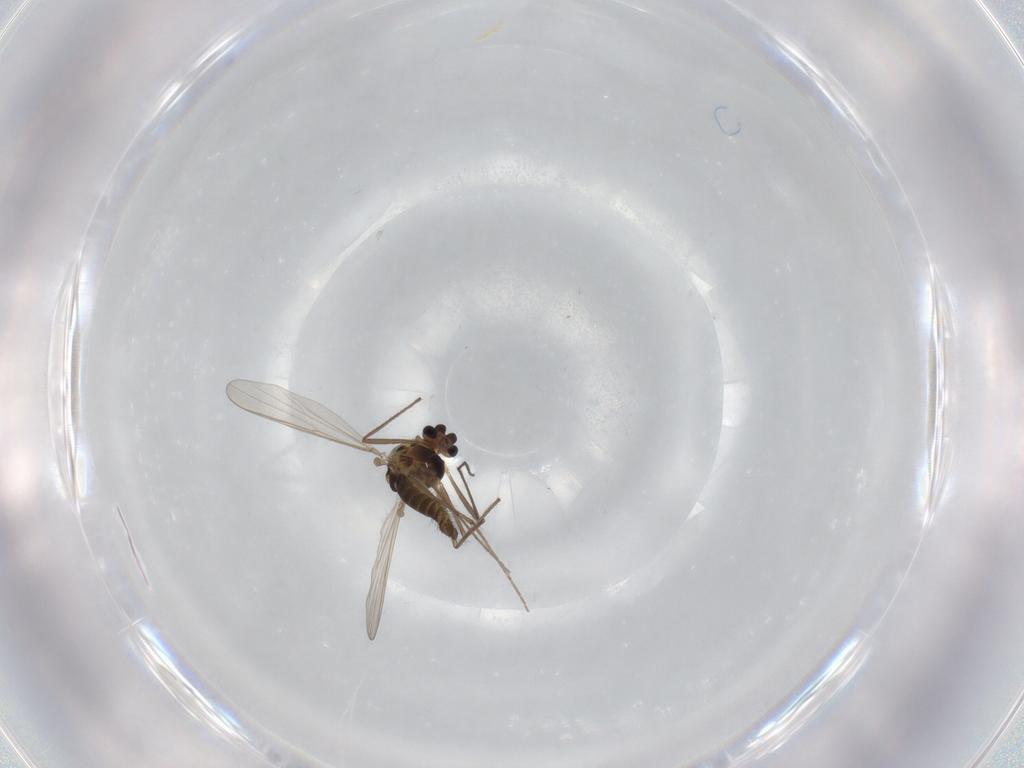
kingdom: Animalia
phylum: Arthropoda
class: Insecta
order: Diptera
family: Chironomidae
